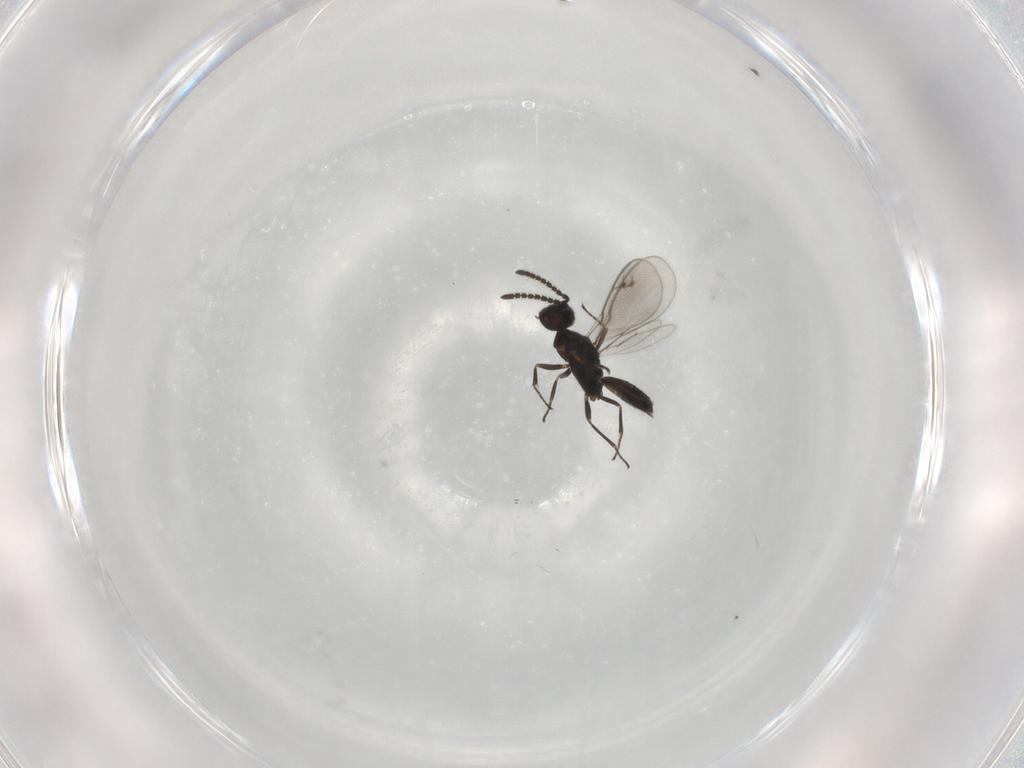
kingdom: Animalia
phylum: Arthropoda
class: Insecta
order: Hymenoptera
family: Eupelmidae
